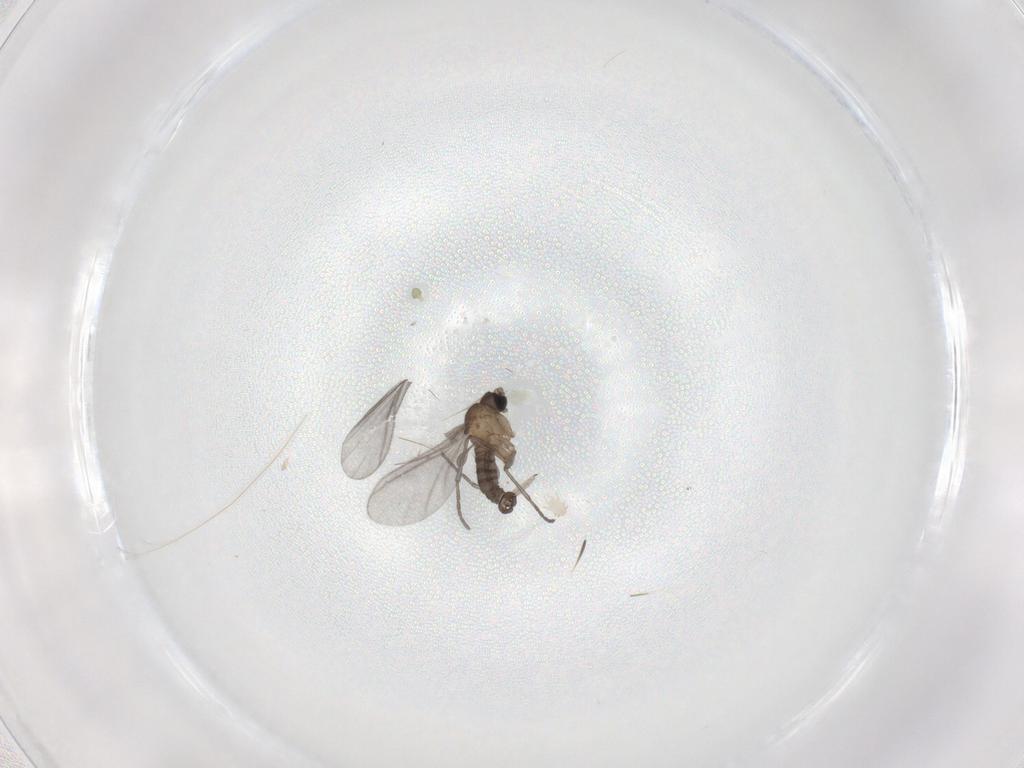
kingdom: Animalia
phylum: Arthropoda
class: Insecta
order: Diptera
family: Sciaridae
